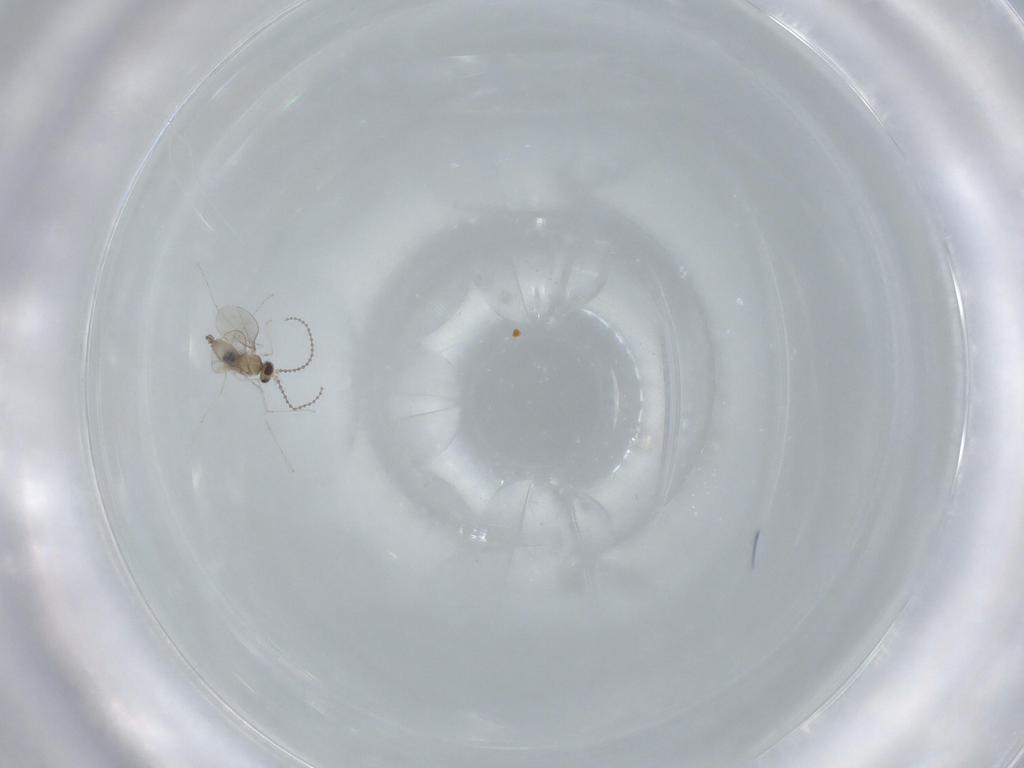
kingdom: Animalia
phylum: Arthropoda
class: Insecta
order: Diptera
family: Cecidomyiidae
